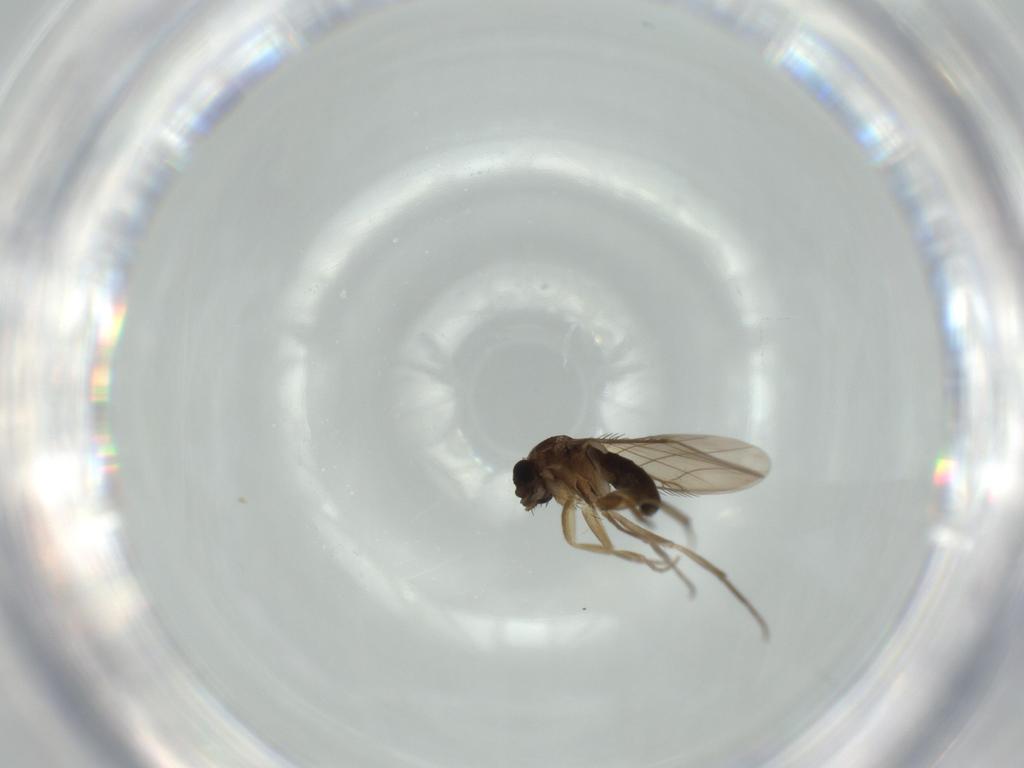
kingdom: Animalia
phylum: Arthropoda
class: Insecta
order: Diptera
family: Phoridae
